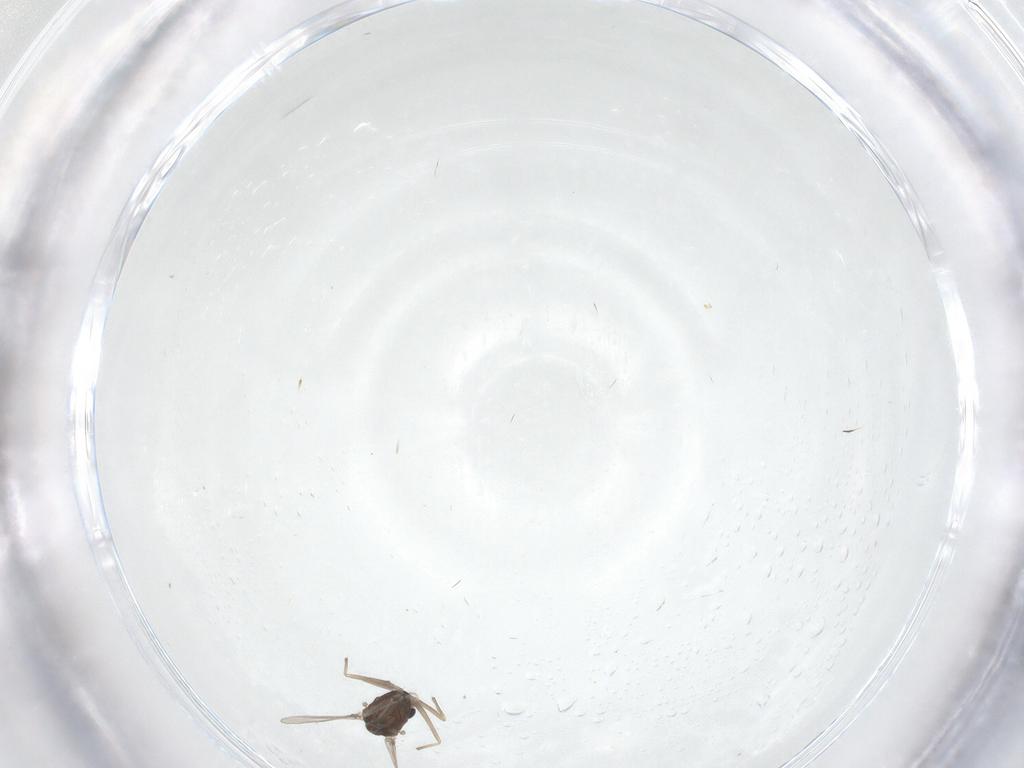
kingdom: Animalia
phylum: Arthropoda
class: Insecta
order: Diptera
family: Chironomidae
